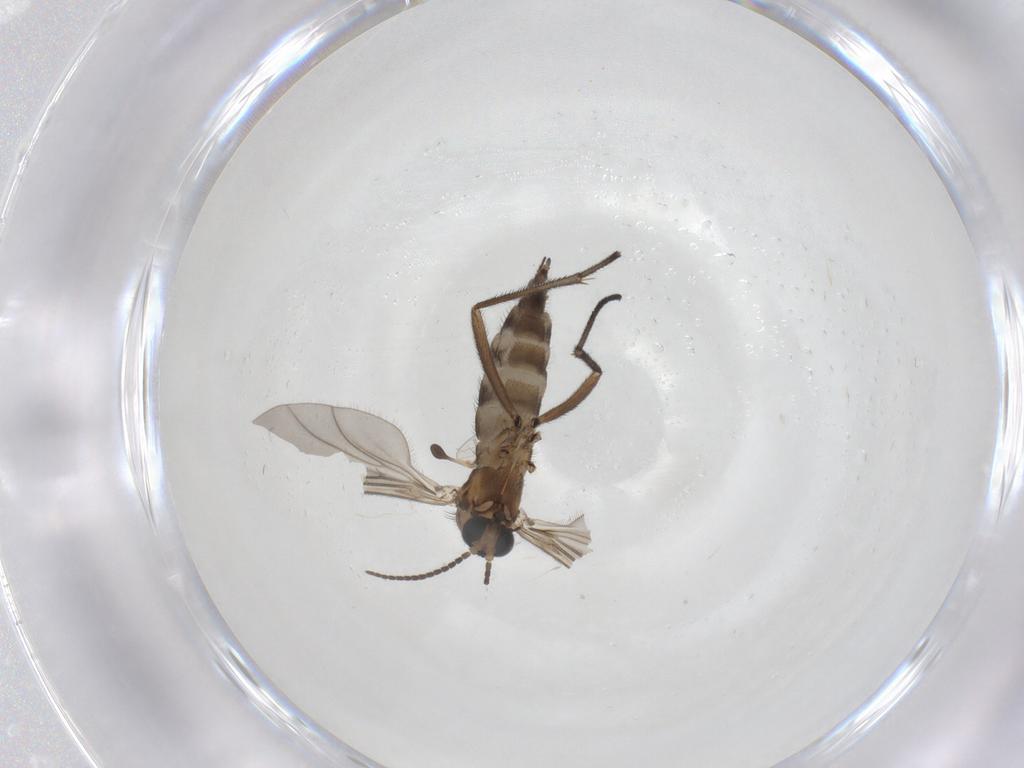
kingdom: Animalia
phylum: Arthropoda
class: Insecta
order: Diptera
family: Sciaridae
